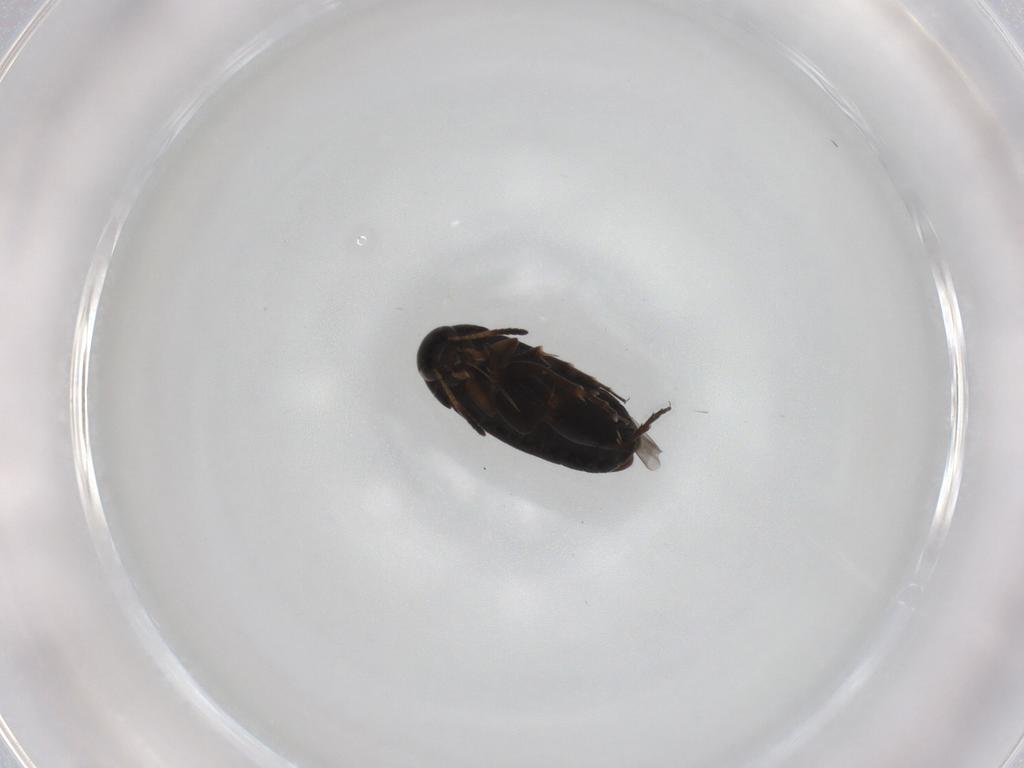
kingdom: Animalia
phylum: Arthropoda
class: Insecta
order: Coleoptera
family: Scraptiidae
